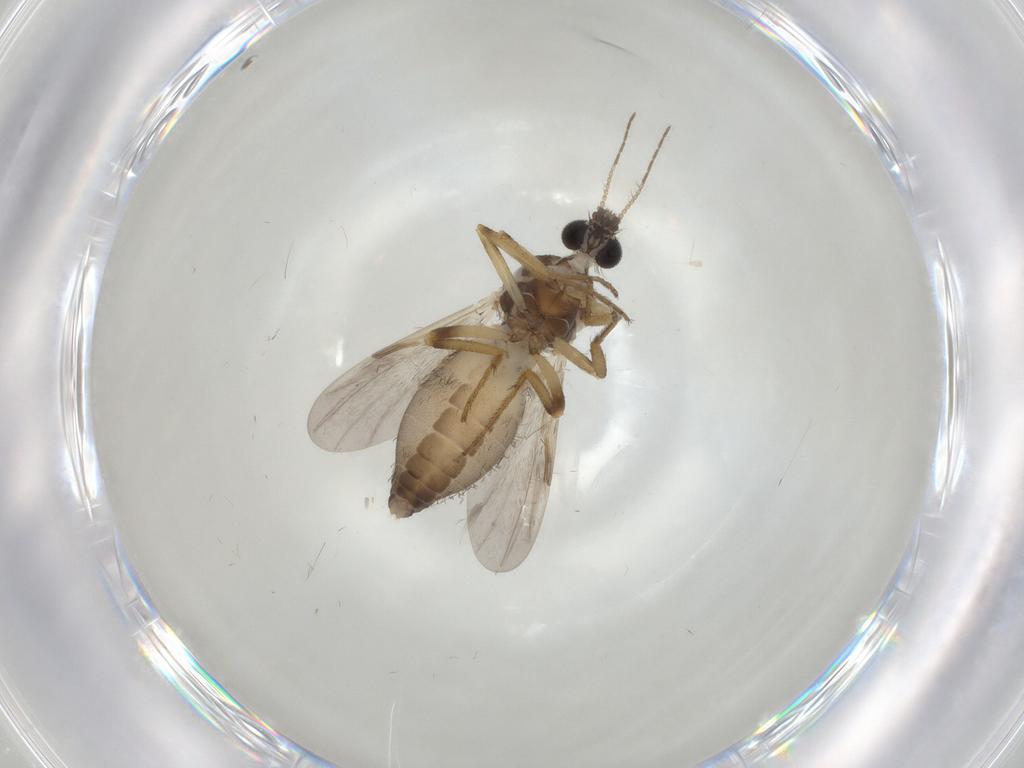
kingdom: Animalia
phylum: Arthropoda
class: Insecta
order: Diptera
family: Ceratopogonidae
